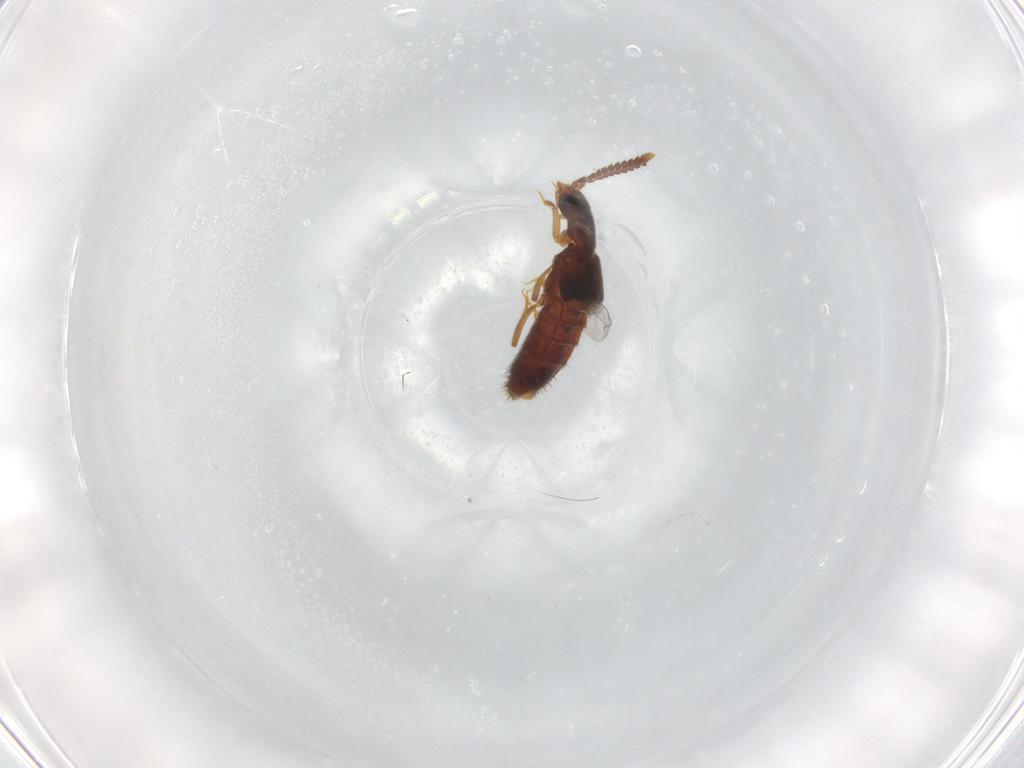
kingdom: Animalia
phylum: Arthropoda
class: Insecta
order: Coleoptera
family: Staphylinidae
